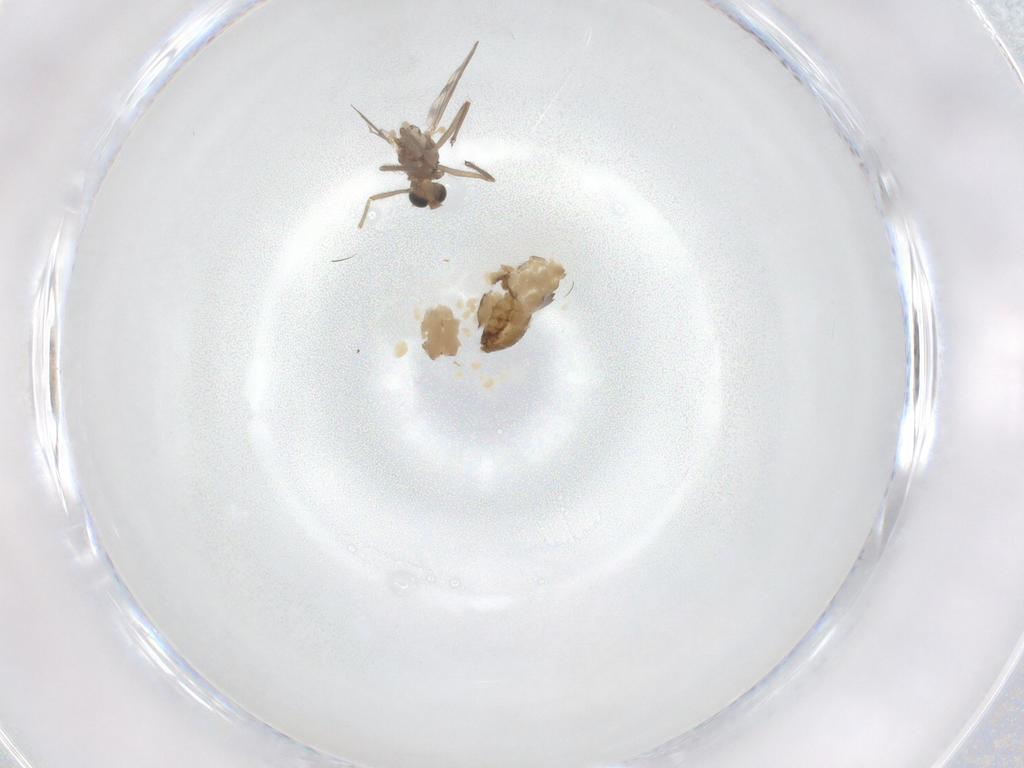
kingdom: Animalia
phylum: Arthropoda
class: Insecta
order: Diptera
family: Chironomidae
